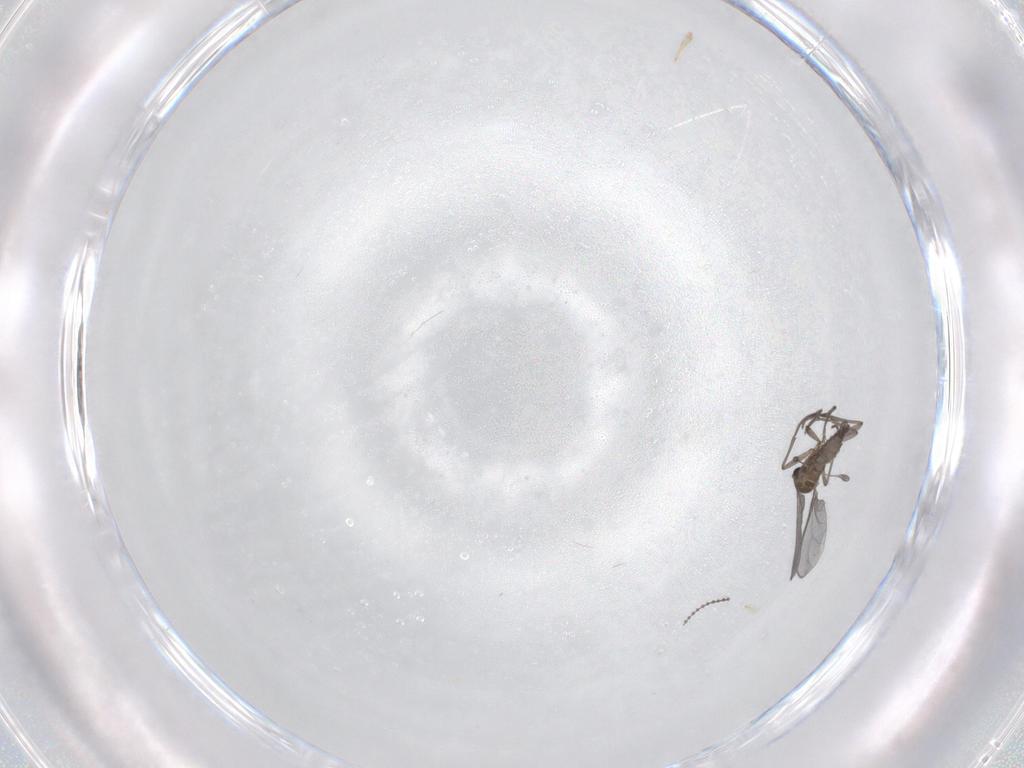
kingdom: Animalia
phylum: Arthropoda
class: Insecta
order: Diptera
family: Sciaridae
